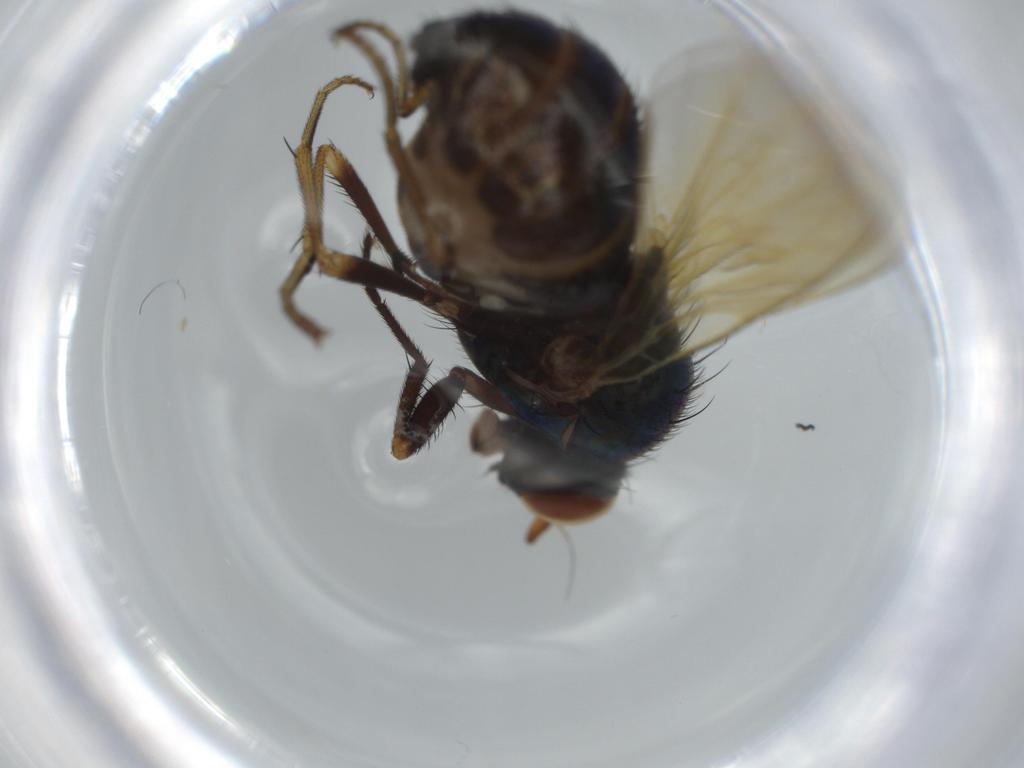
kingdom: Animalia
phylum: Arthropoda
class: Insecta
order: Diptera
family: Lauxaniidae
